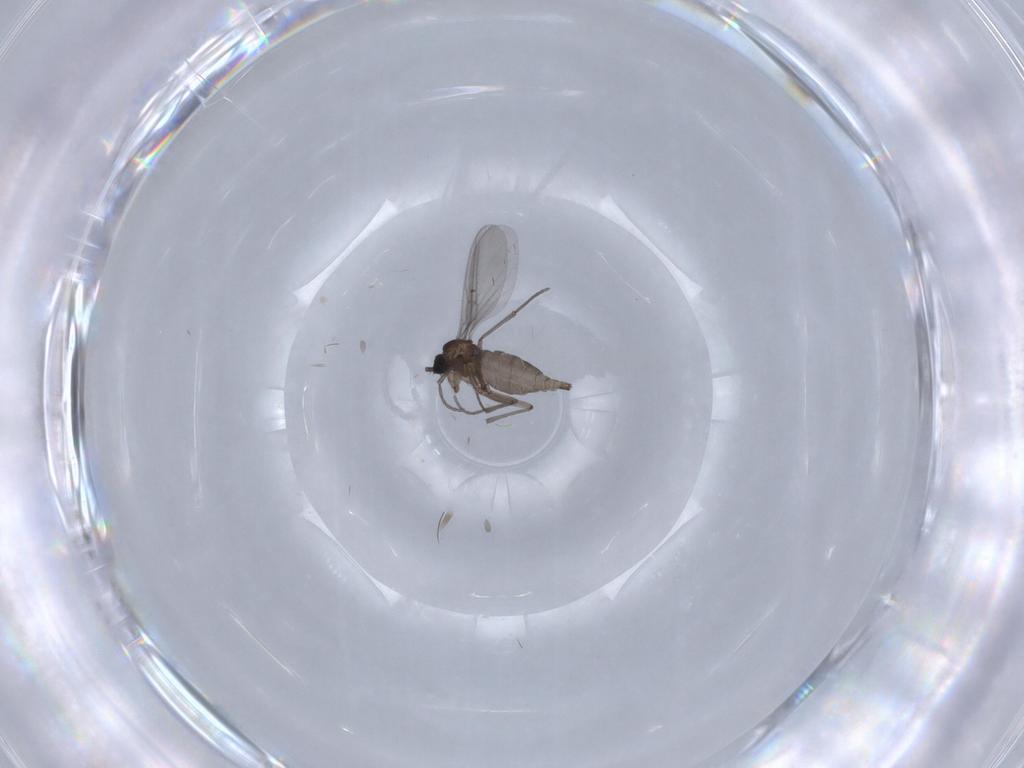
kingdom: Animalia
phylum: Arthropoda
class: Insecta
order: Diptera
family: Sciaridae
